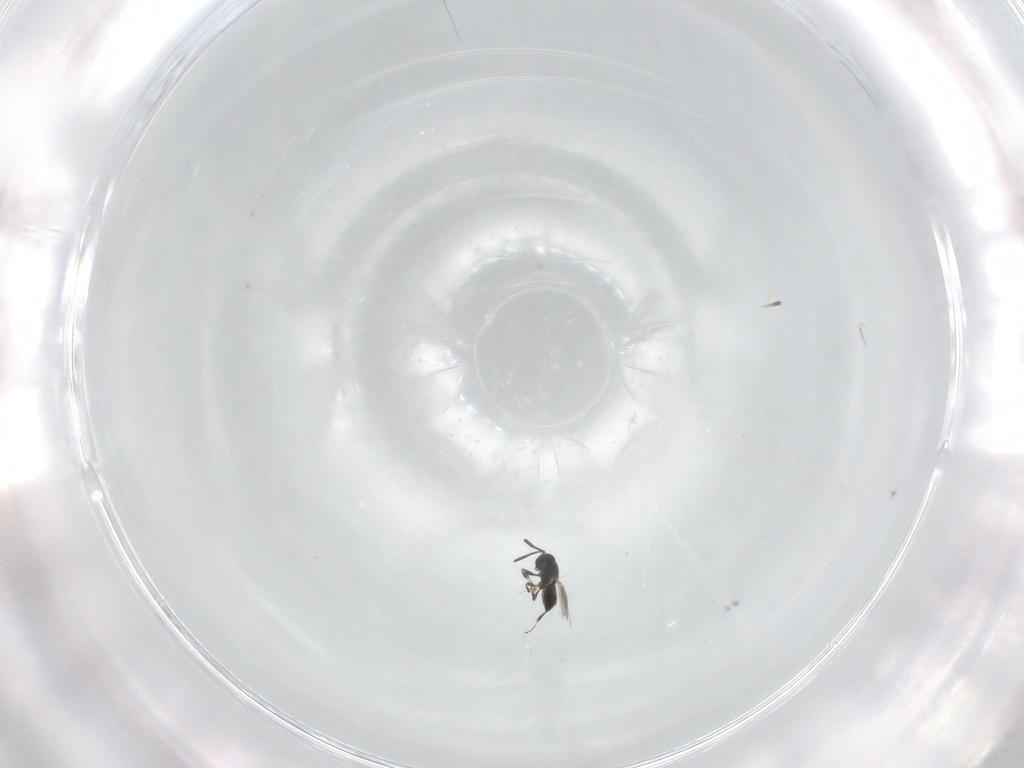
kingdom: Animalia
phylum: Arthropoda
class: Insecta
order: Hymenoptera
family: Scelionidae
